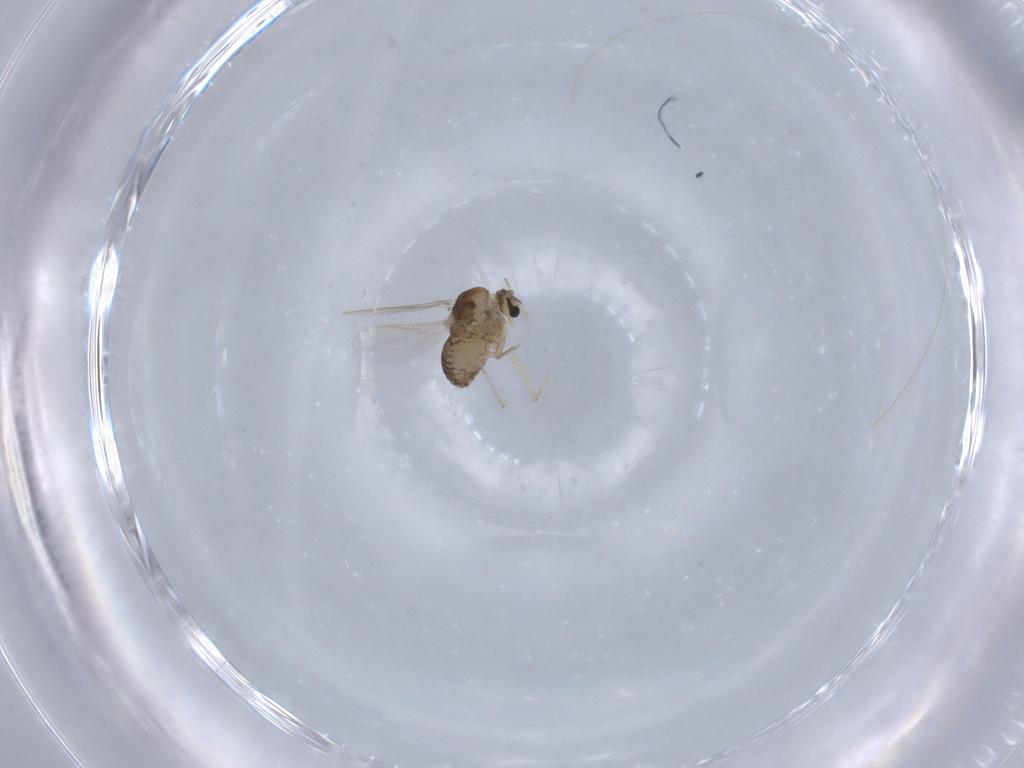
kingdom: Animalia
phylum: Arthropoda
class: Insecta
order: Diptera
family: Chironomidae
